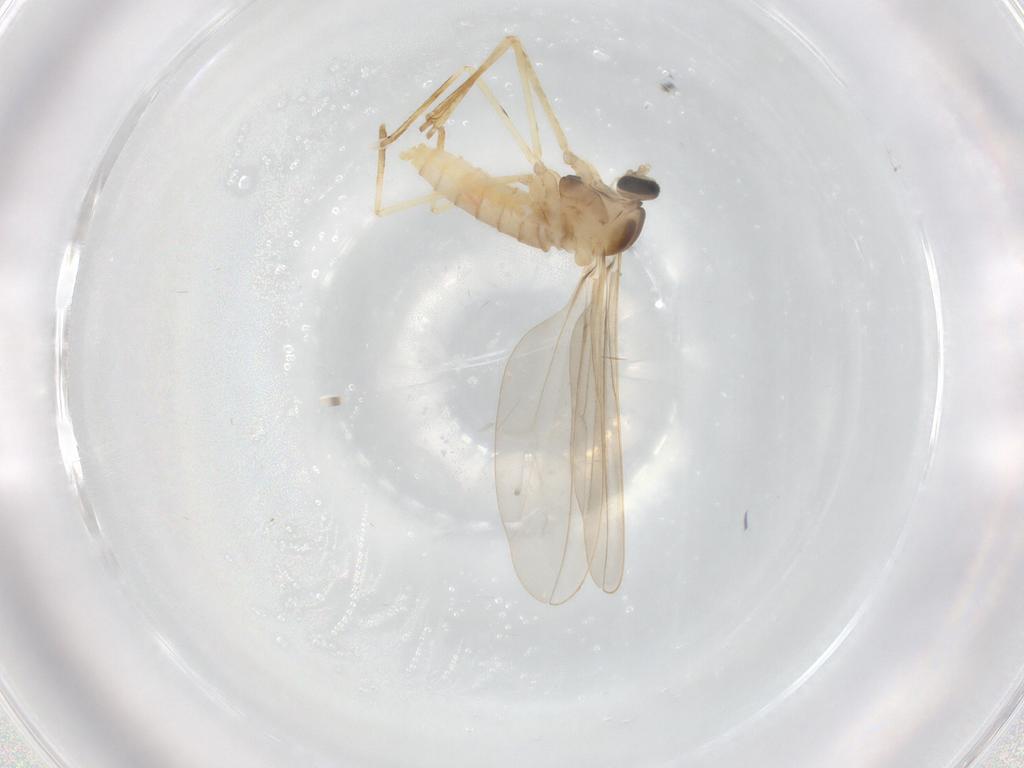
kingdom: Animalia
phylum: Arthropoda
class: Insecta
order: Diptera
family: Cecidomyiidae
